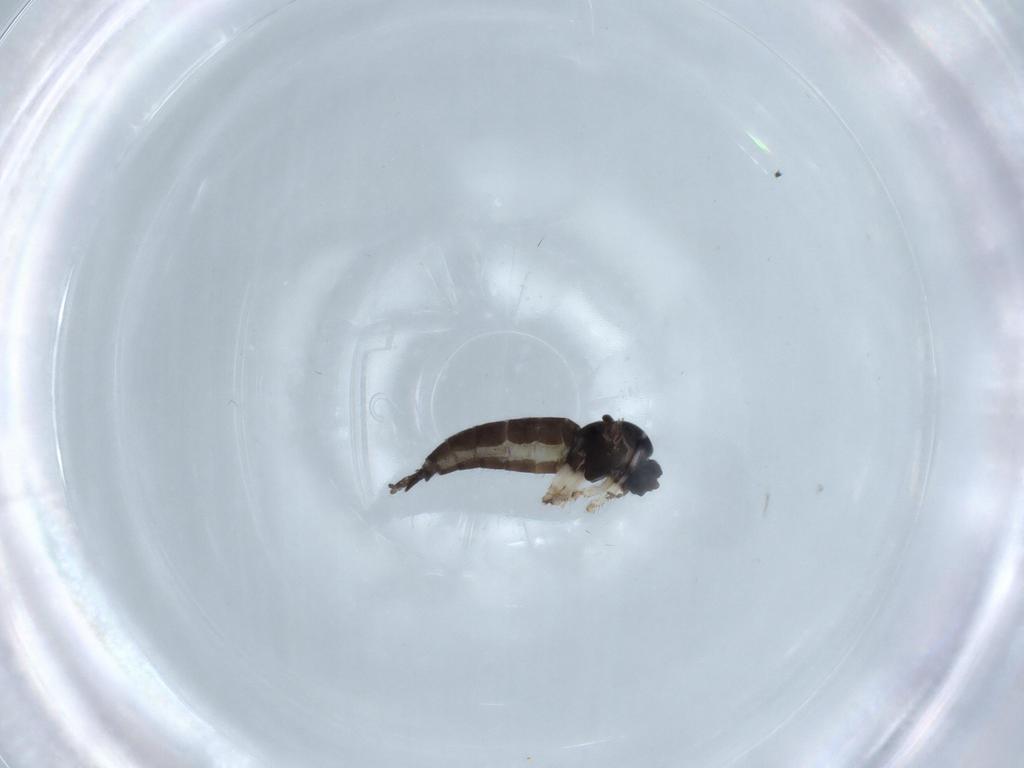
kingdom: Animalia
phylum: Arthropoda
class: Insecta
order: Diptera
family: Sciaridae
